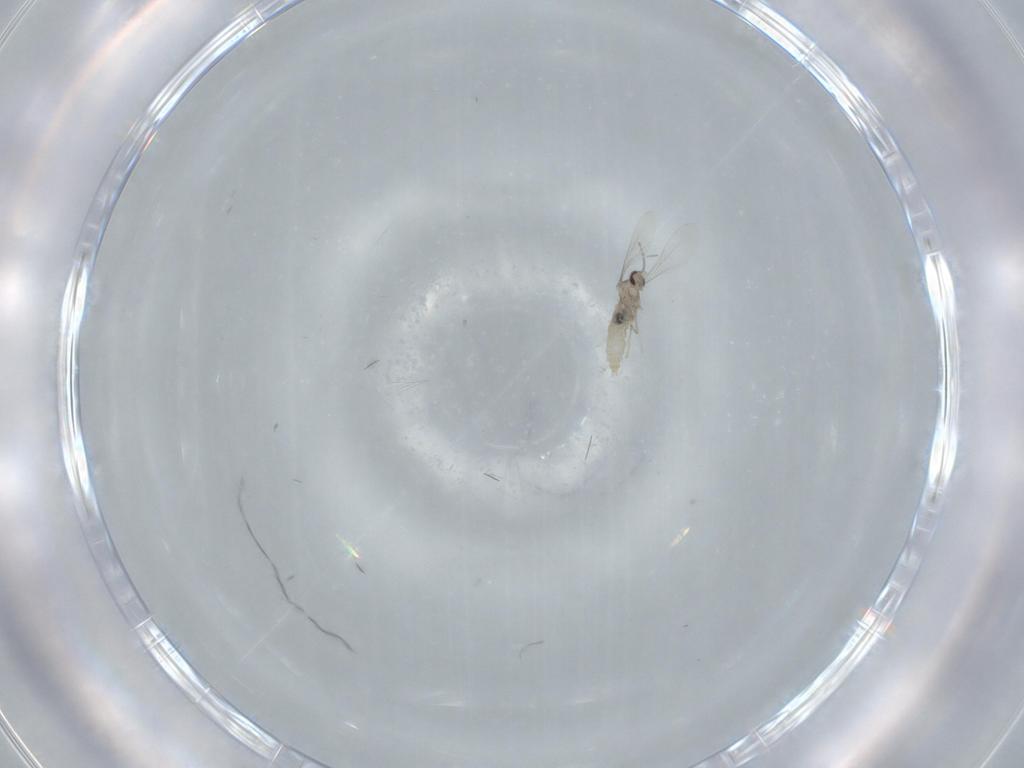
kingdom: Animalia
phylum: Arthropoda
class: Insecta
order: Diptera
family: Cecidomyiidae
